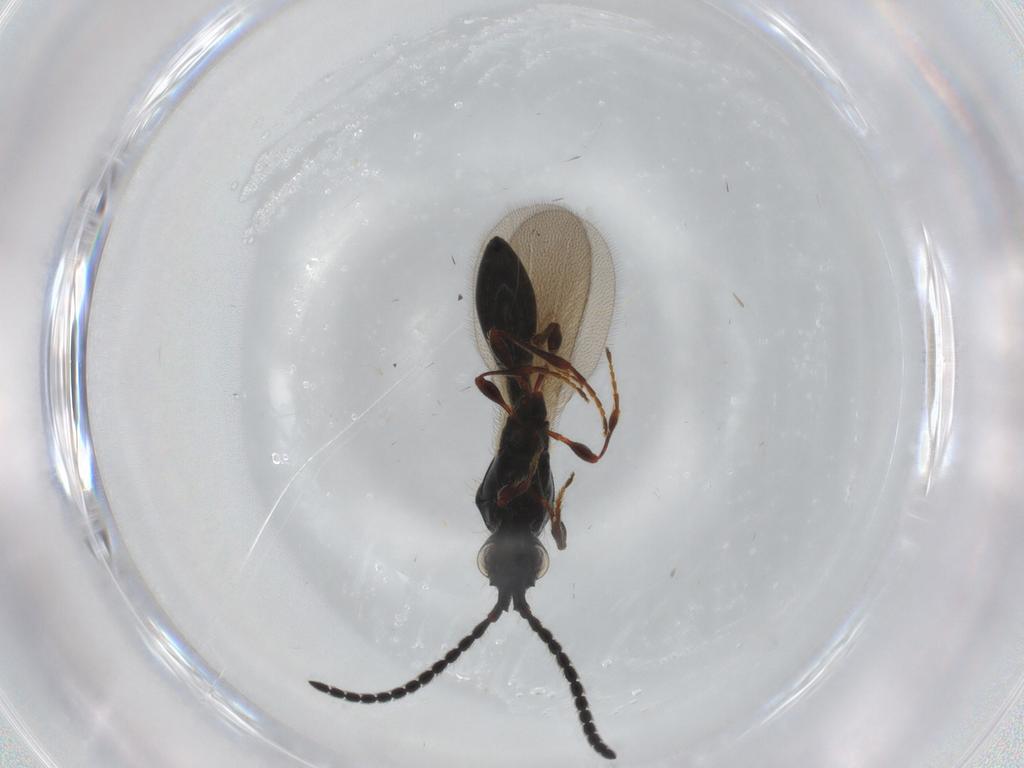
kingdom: Animalia
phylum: Arthropoda
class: Insecta
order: Hymenoptera
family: Diapriidae
